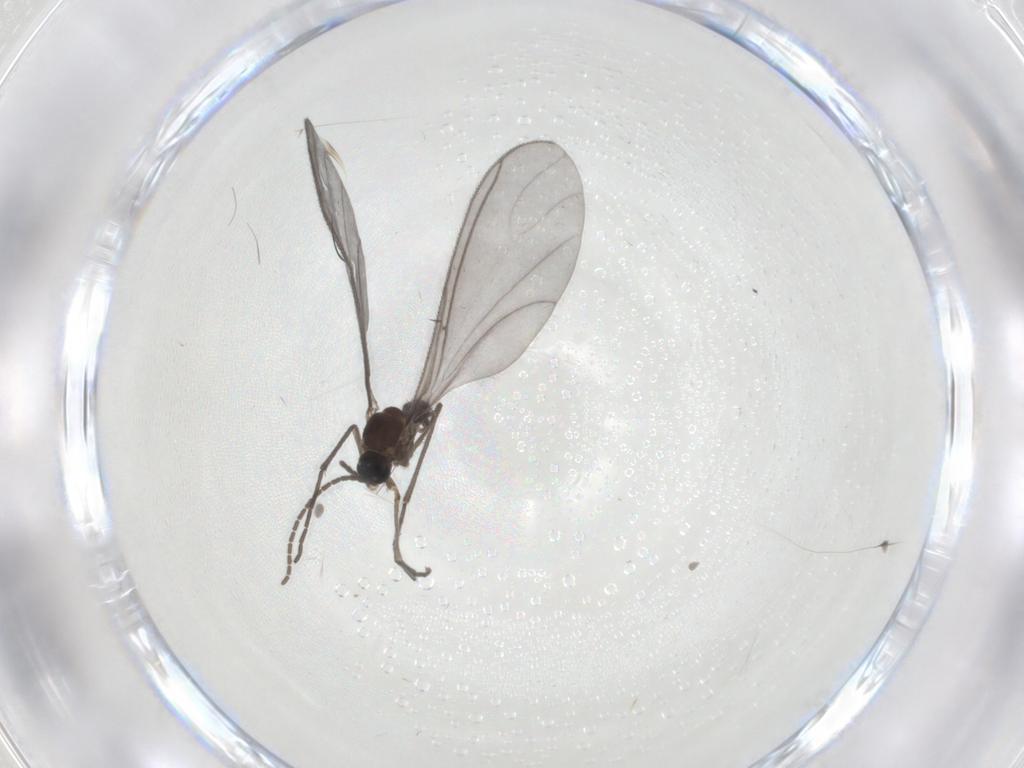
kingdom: Animalia
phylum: Arthropoda
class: Insecta
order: Diptera
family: Sciaridae
